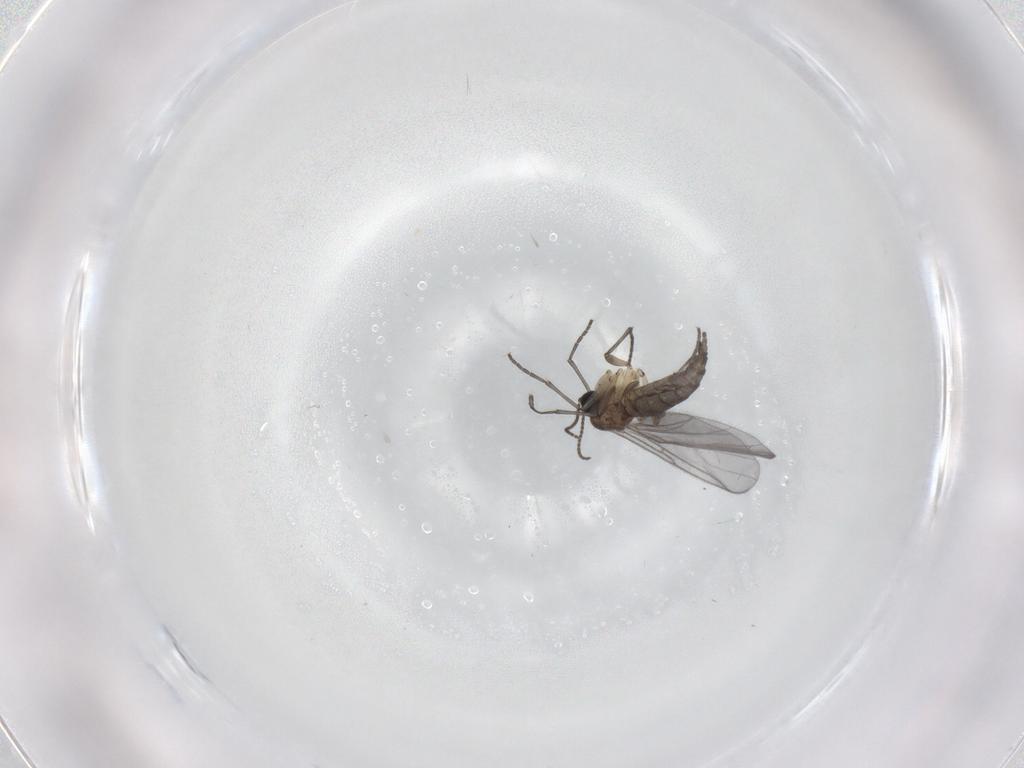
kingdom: Animalia
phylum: Arthropoda
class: Insecta
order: Diptera
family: Sciaridae
